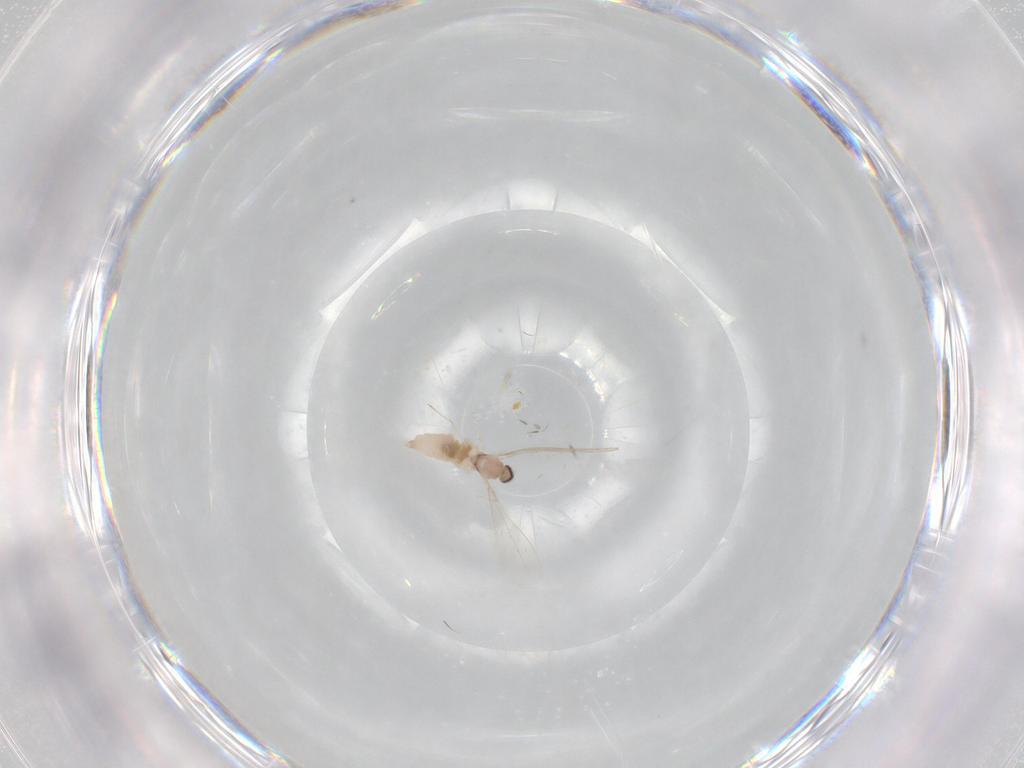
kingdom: Animalia
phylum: Arthropoda
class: Insecta
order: Diptera
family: Cecidomyiidae
